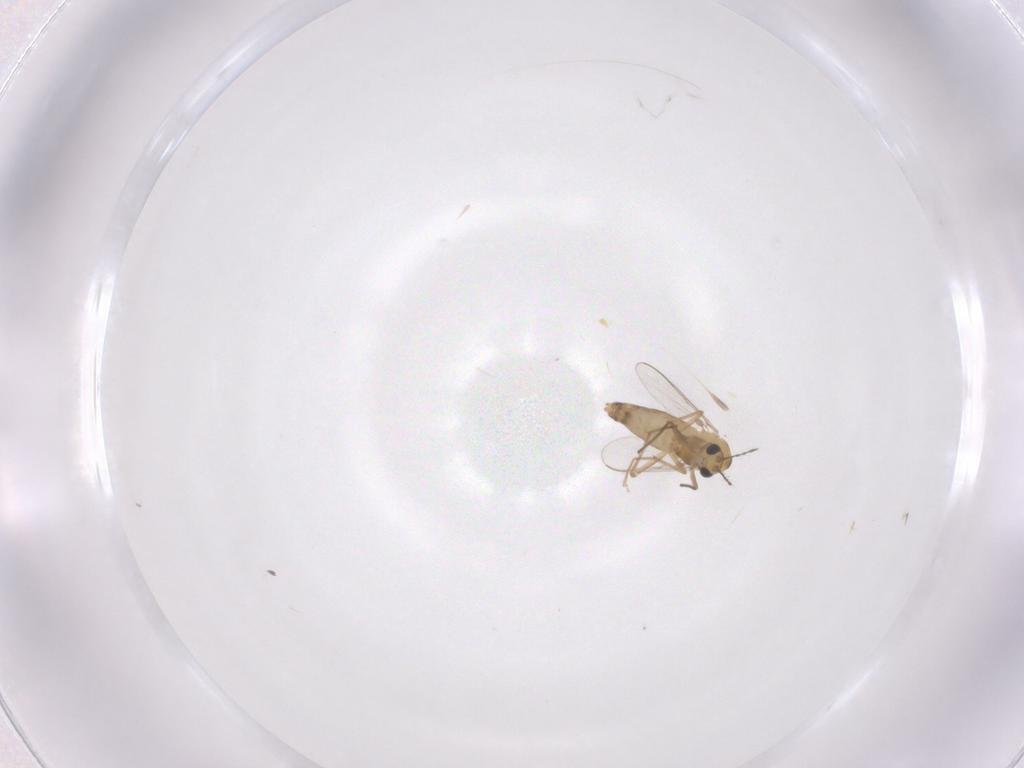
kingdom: Animalia
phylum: Arthropoda
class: Insecta
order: Diptera
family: Chironomidae
